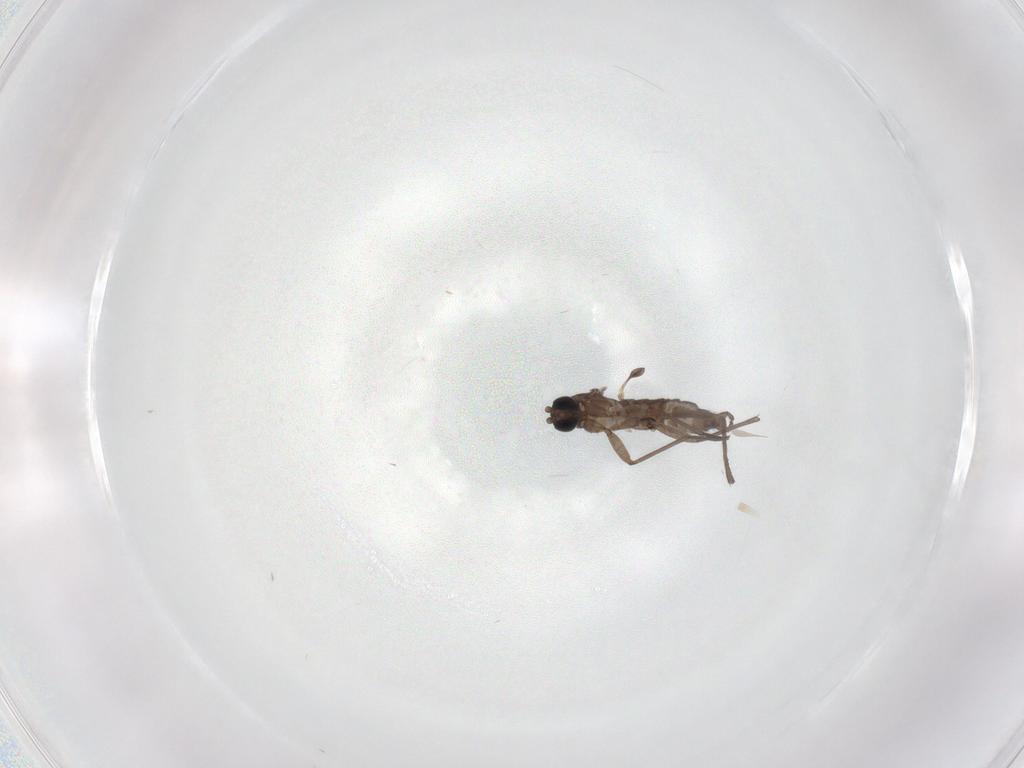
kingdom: Animalia
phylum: Arthropoda
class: Insecta
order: Diptera
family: Sciaridae
